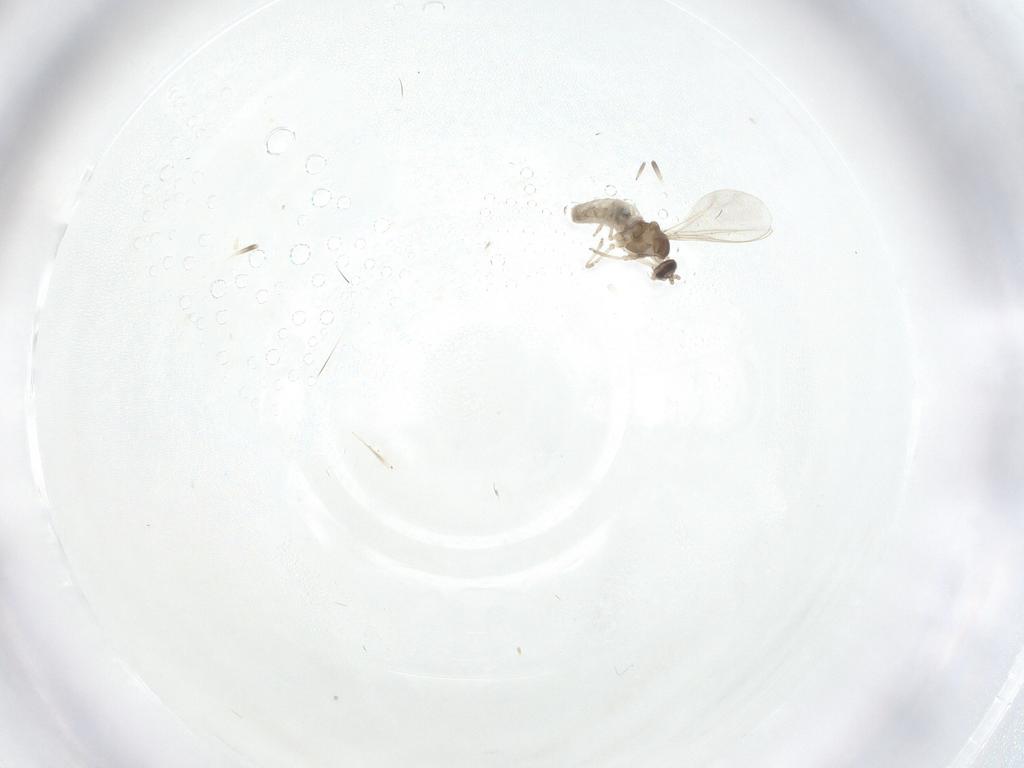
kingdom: Animalia
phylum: Arthropoda
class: Insecta
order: Diptera
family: Cecidomyiidae
